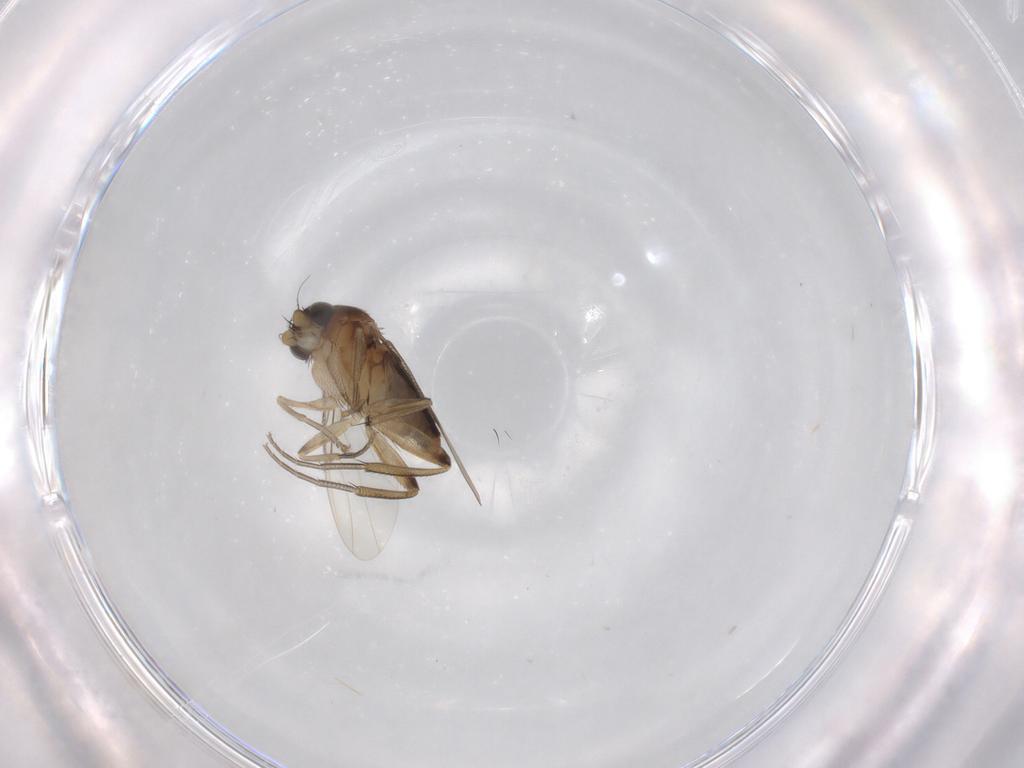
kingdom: Animalia
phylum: Arthropoda
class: Insecta
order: Diptera
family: Phoridae
